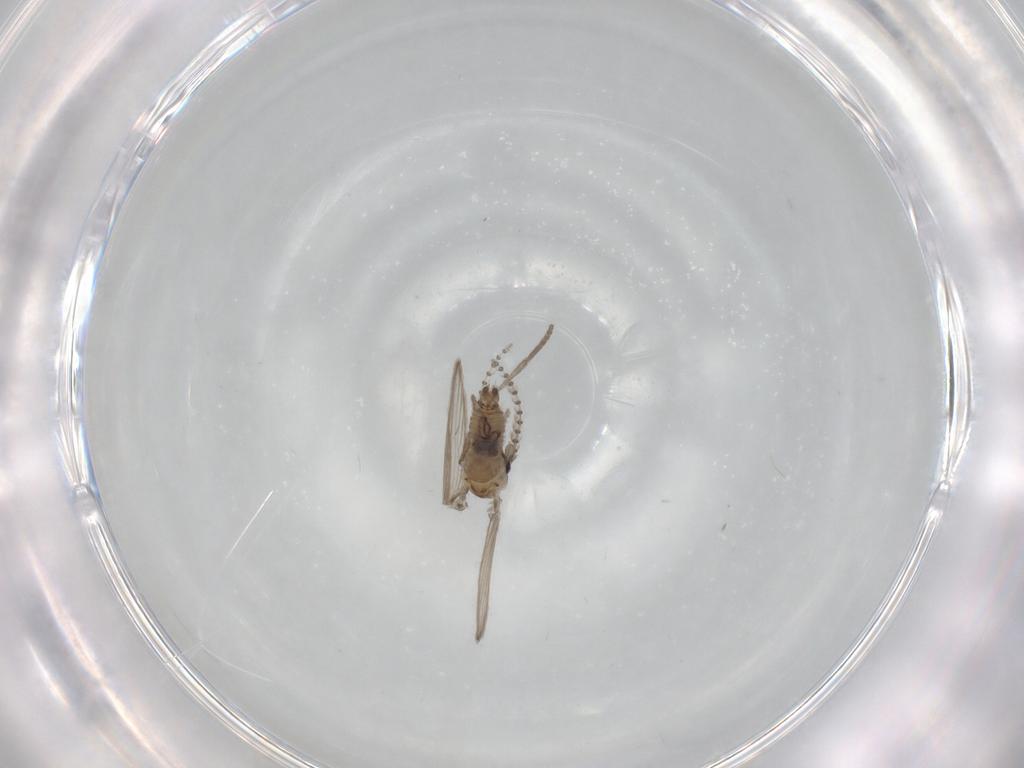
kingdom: Animalia
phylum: Arthropoda
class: Insecta
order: Diptera
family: Psychodidae
